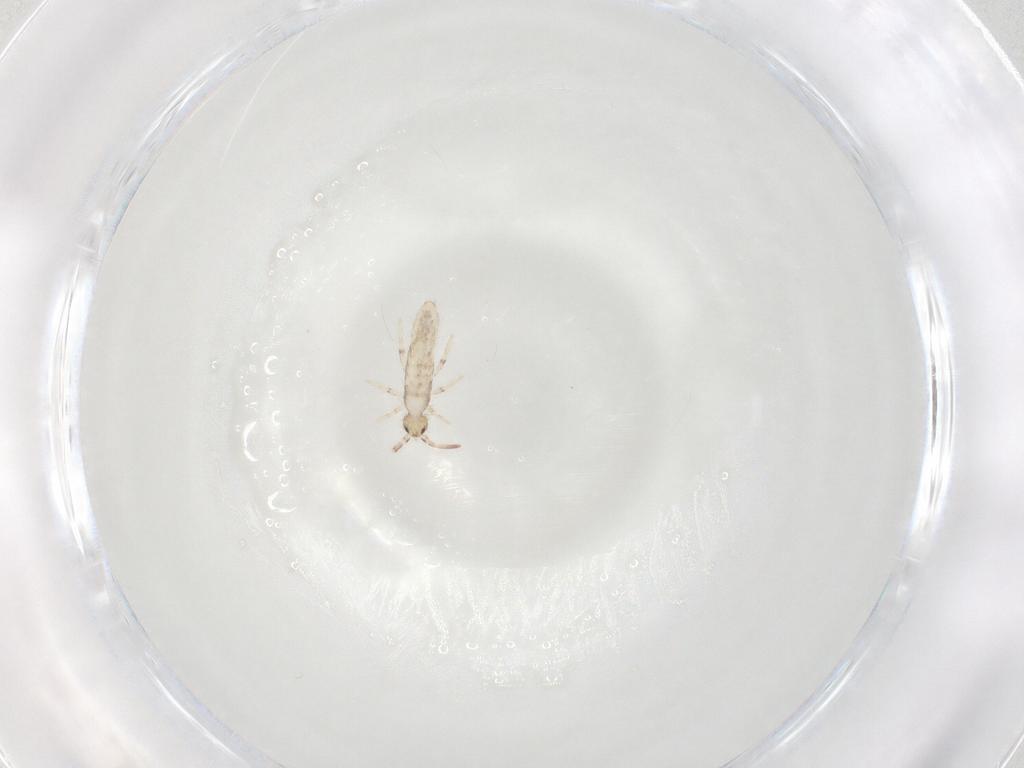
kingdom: Animalia
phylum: Arthropoda
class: Collembola
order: Entomobryomorpha
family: Entomobryidae
